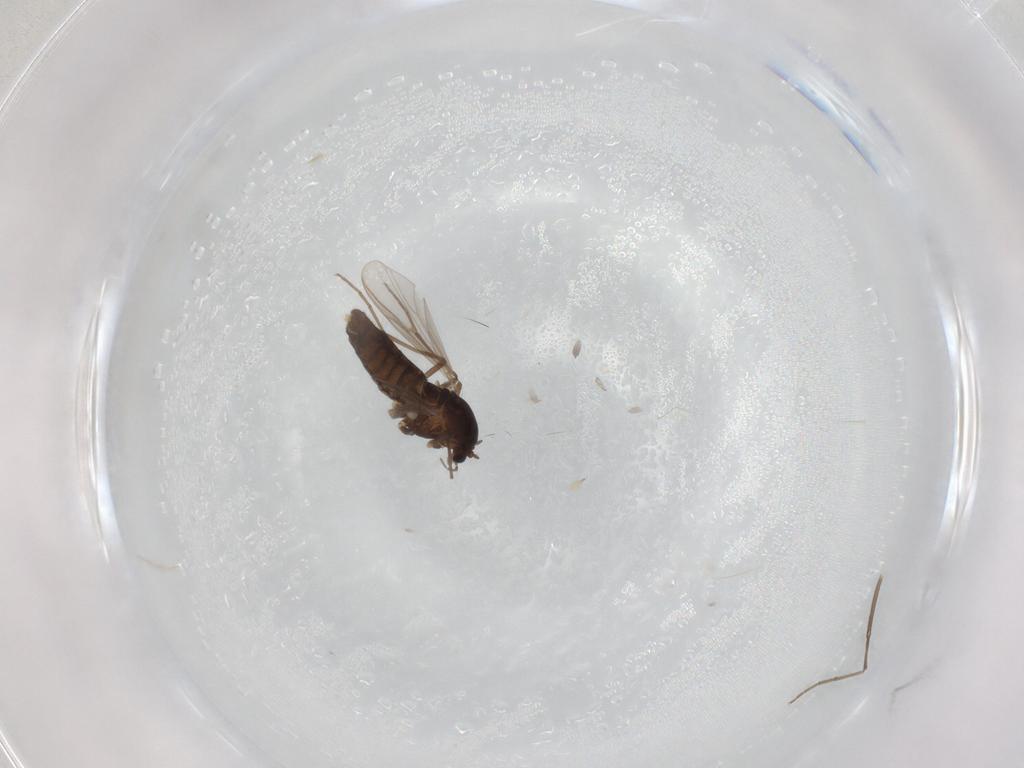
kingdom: Animalia
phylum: Arthropoda
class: Insecta
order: Diptera
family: Chironomidae
